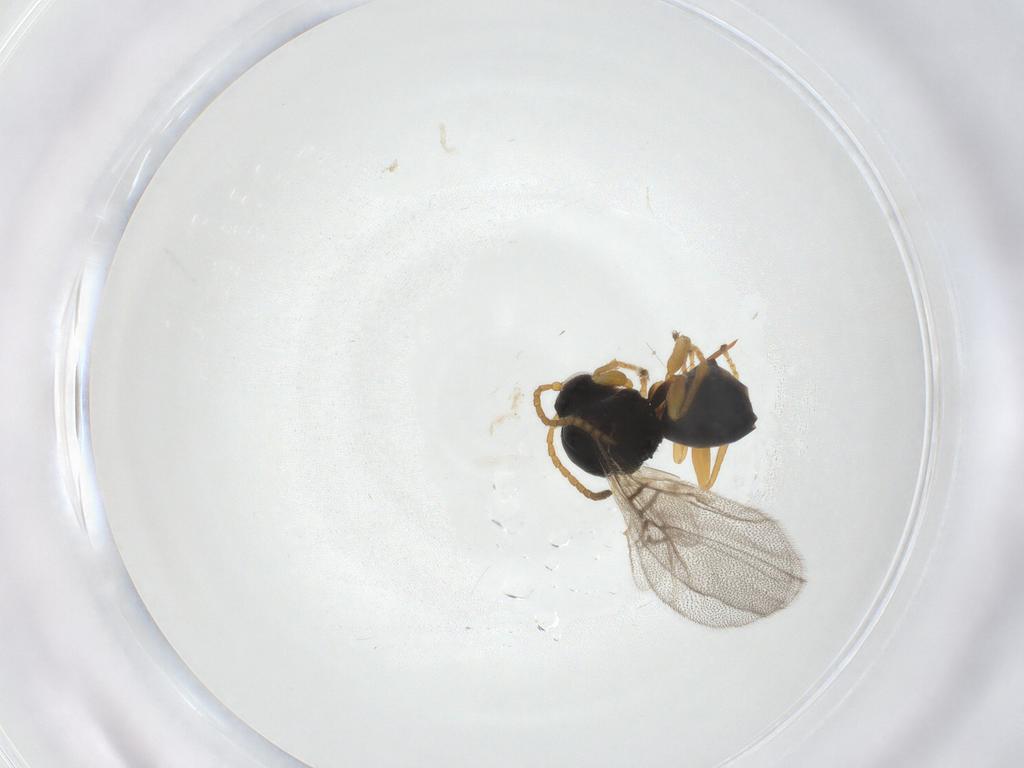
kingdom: Animalia
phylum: Arthropoda
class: Insecta
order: Hymenoptera
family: Cynipidae
